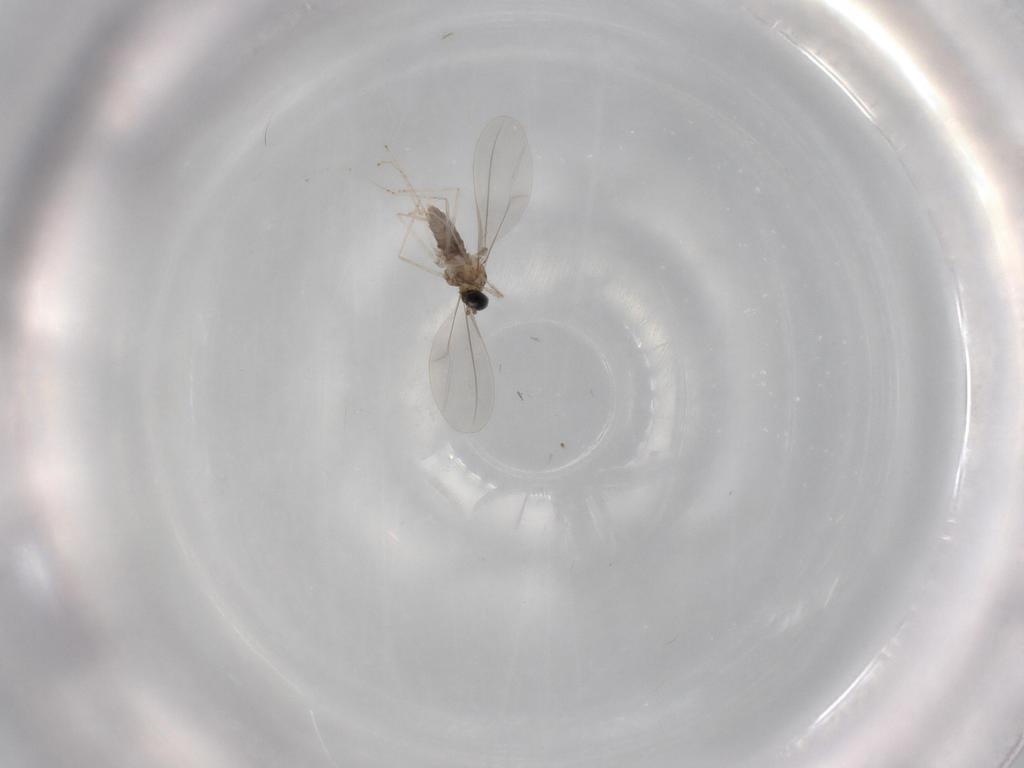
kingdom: Animalia
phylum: Arthropoda
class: Insecta
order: Diptera
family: Cecidomyiidae
